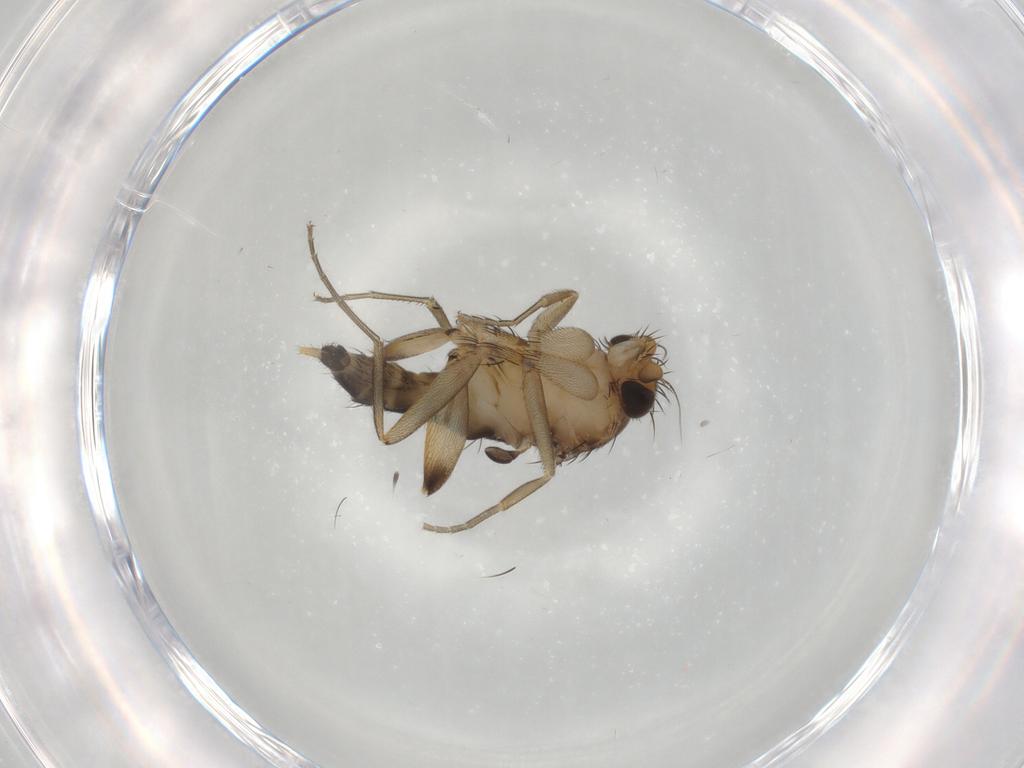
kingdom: Animalia
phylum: Arthropoda
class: Insecta
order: Diptera
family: Phoridae
